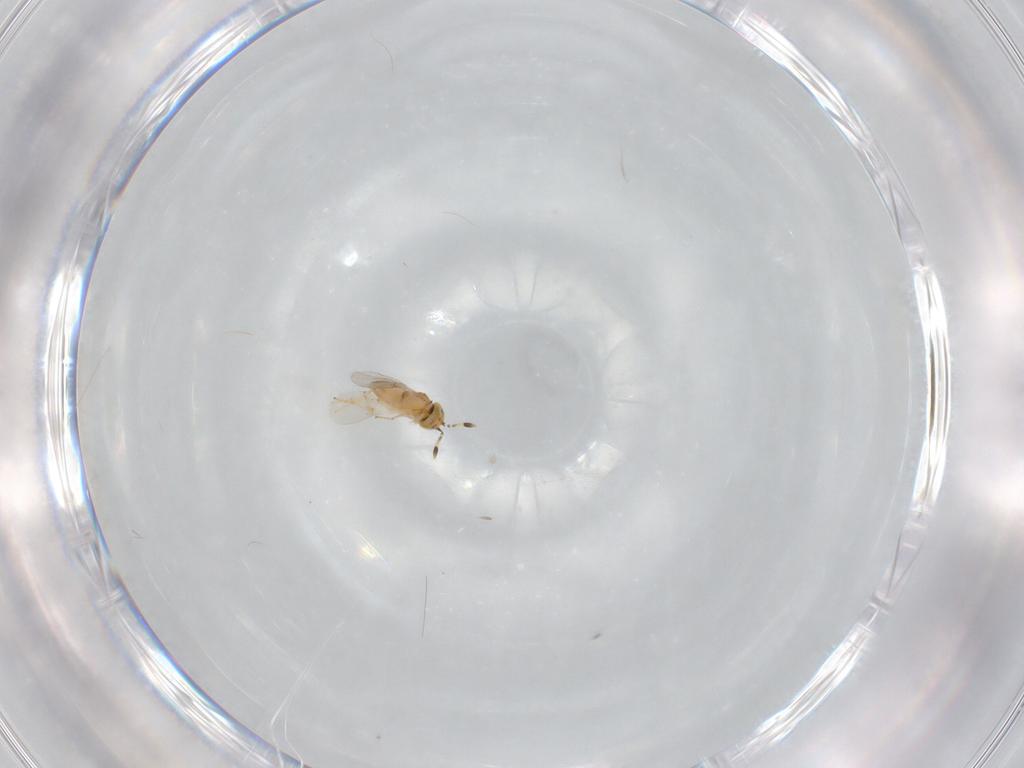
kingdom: Animalia
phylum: Arthropoda
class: Insecta
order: Hymenoptera
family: Encyrtidae
